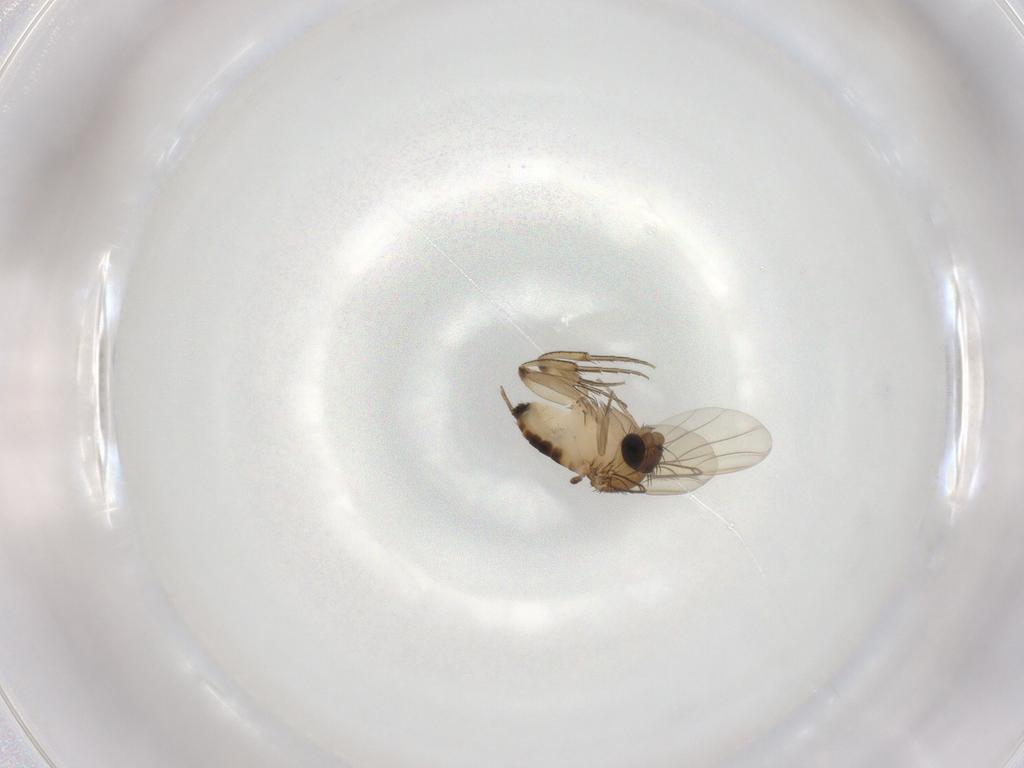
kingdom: Animalia
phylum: Arthropoda
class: Insecta
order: Diptera
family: Phoridae
